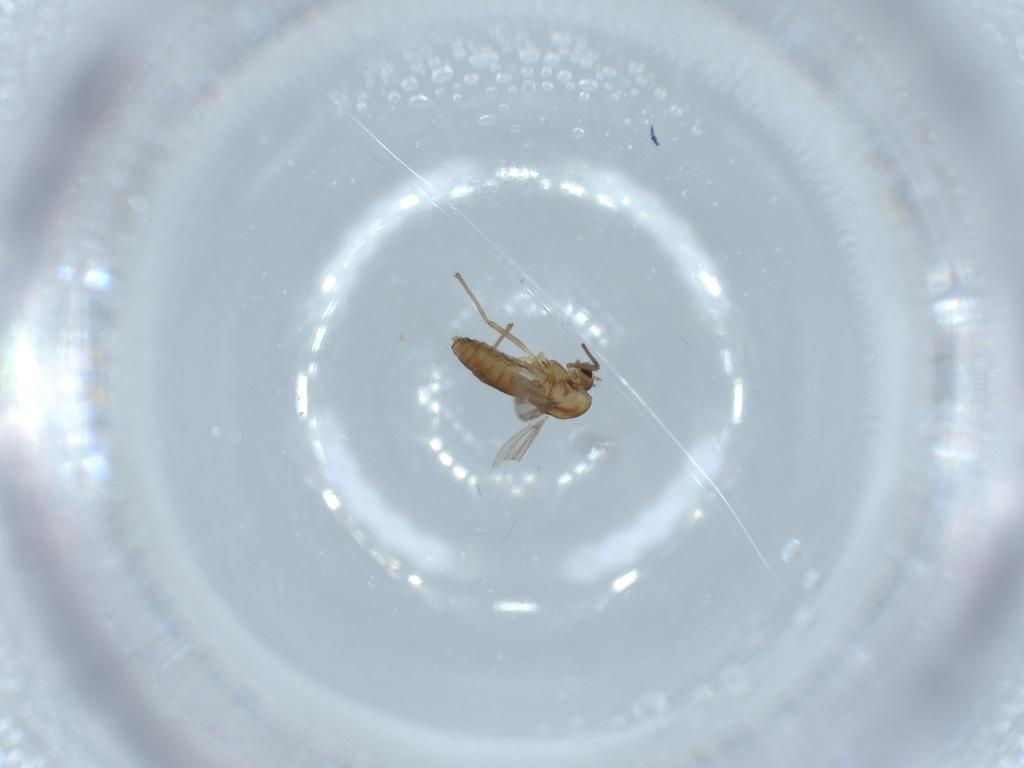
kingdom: Animalia
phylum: Arthropoda
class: Insecta
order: Diptera
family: Chironomidae
